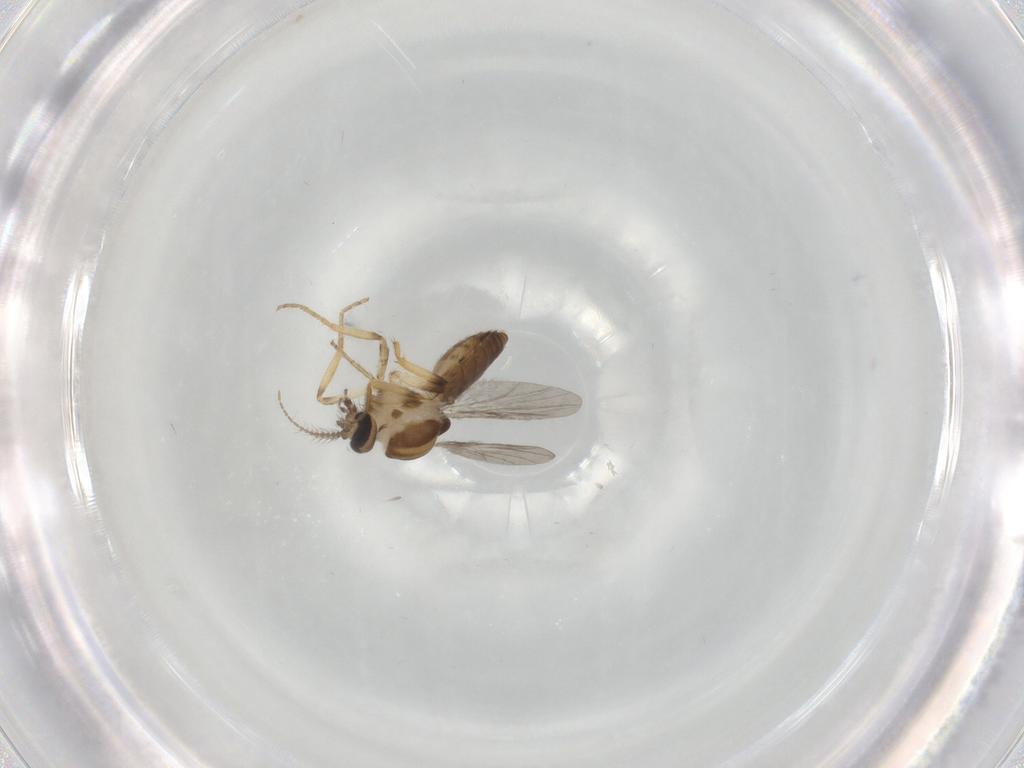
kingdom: Animalia
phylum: Arthropoda
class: Insecta
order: Diptera
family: Ceratopogonidae
